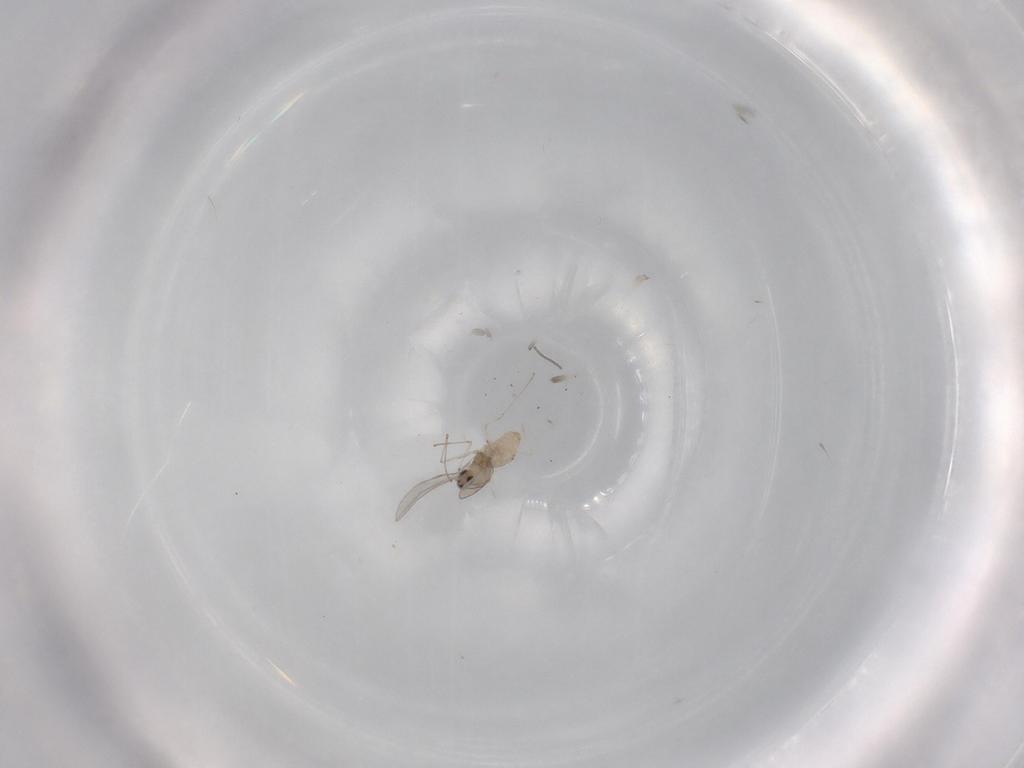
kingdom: Animalia
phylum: Arthropoda
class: Insecta
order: Diptera
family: Cecidomyiidae
